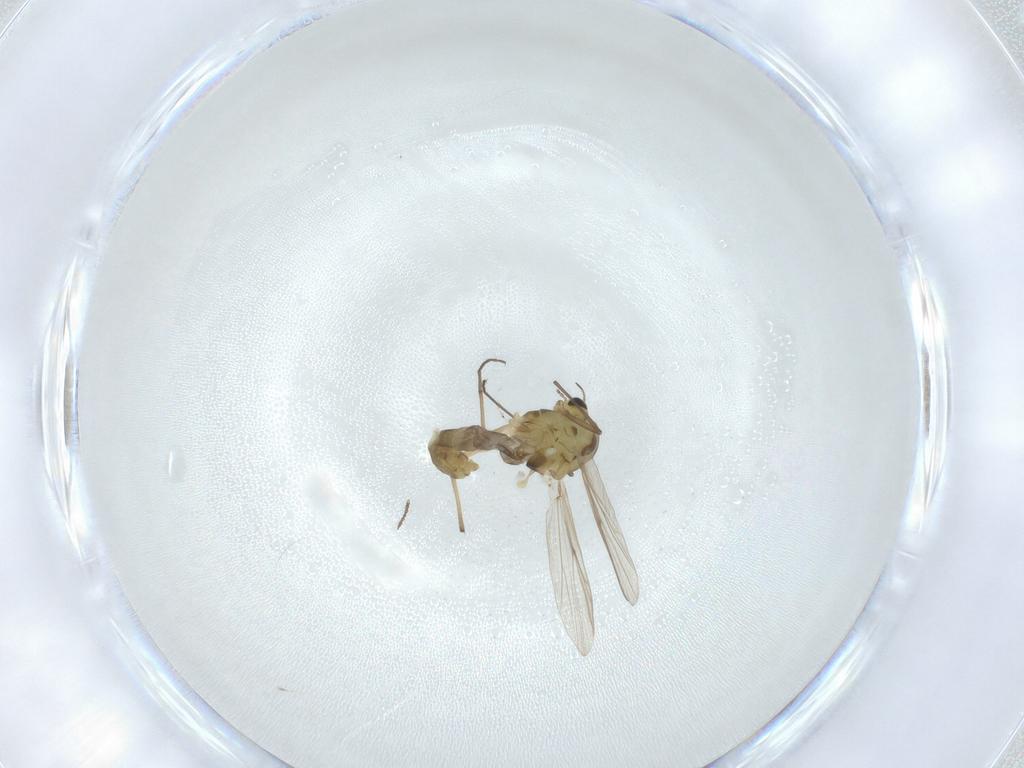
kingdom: Animalia
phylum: Arthropoda
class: Insecta
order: Diptera
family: Chironomidae
